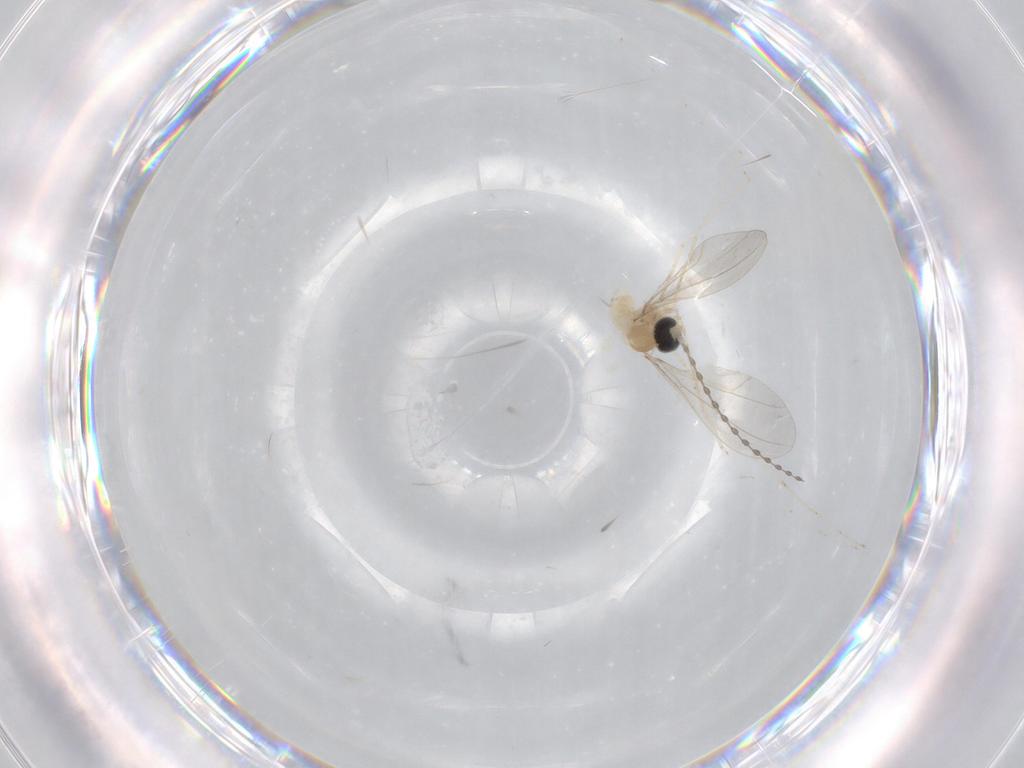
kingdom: Animalia
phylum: Arthropoda
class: Insecta
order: Diptera
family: Cecidomyiidae
